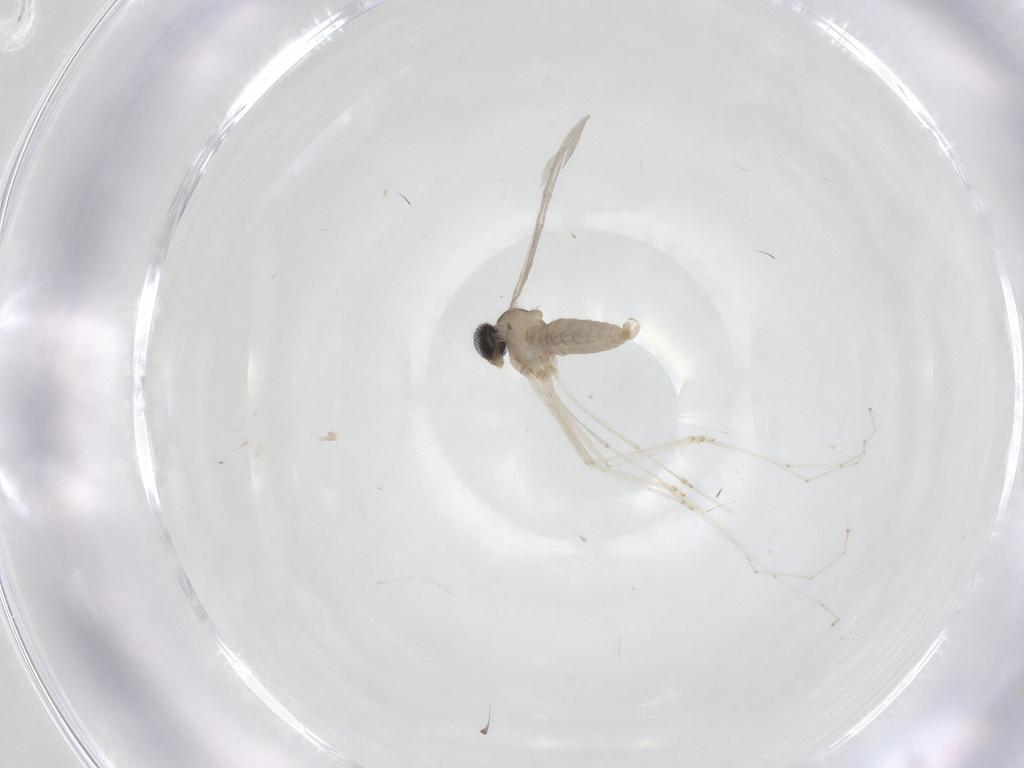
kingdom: Animalia
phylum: Arthropoda
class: Insecta
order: Diptera
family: Cecidomyiidae
